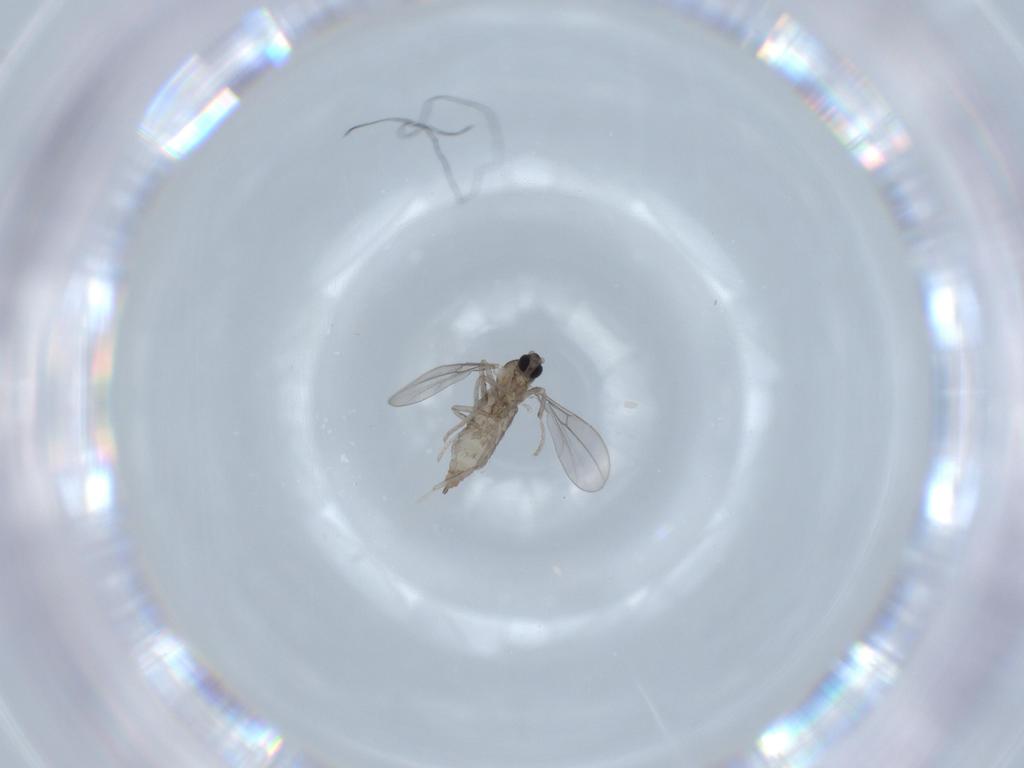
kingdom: Animalia
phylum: Arthropoda
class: Insecta
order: Diptera
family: Cecidomyiidae
